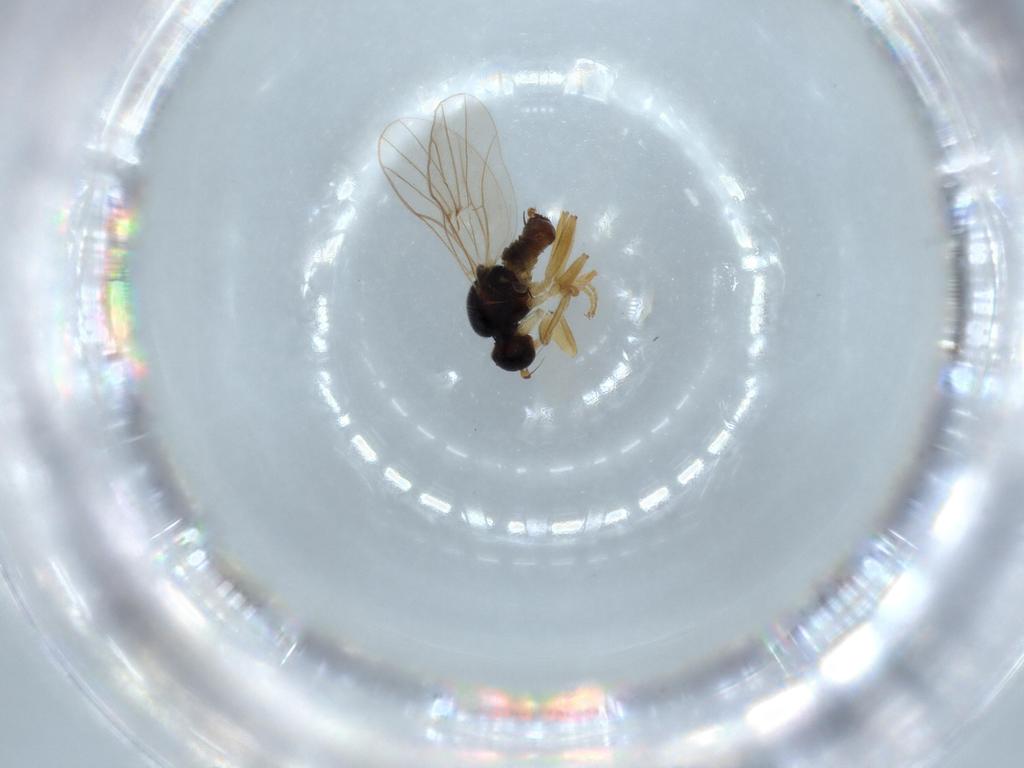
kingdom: Animalia
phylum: Arthropoda
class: Insecta
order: Diptera
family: Hybotidae
